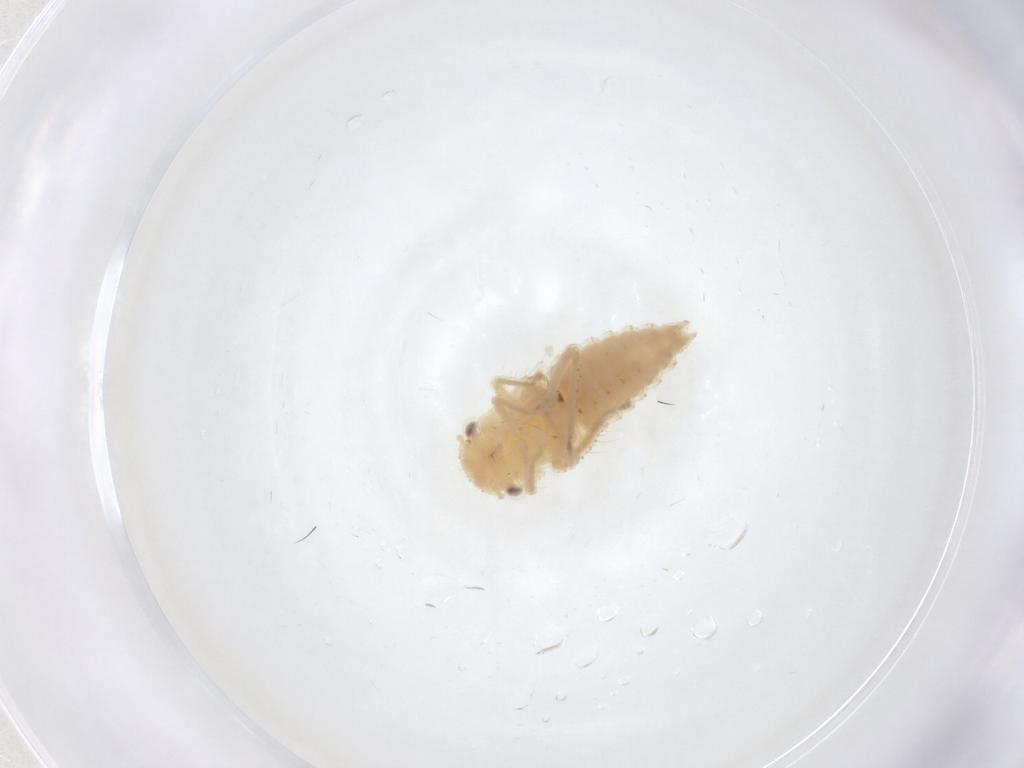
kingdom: Animalia
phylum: Arthropoda
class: Insecta
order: Hemiptera
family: Cicadellidae
